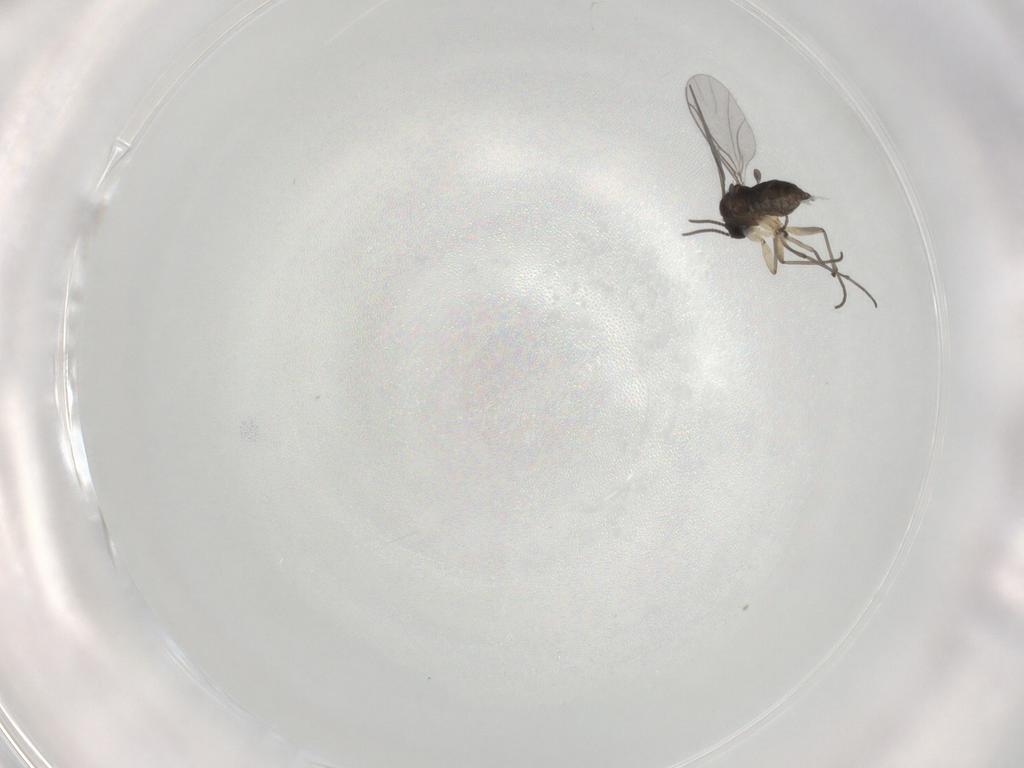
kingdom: Animalia
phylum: Arthropoda
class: Insecta
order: Diptera
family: Sciaridae
